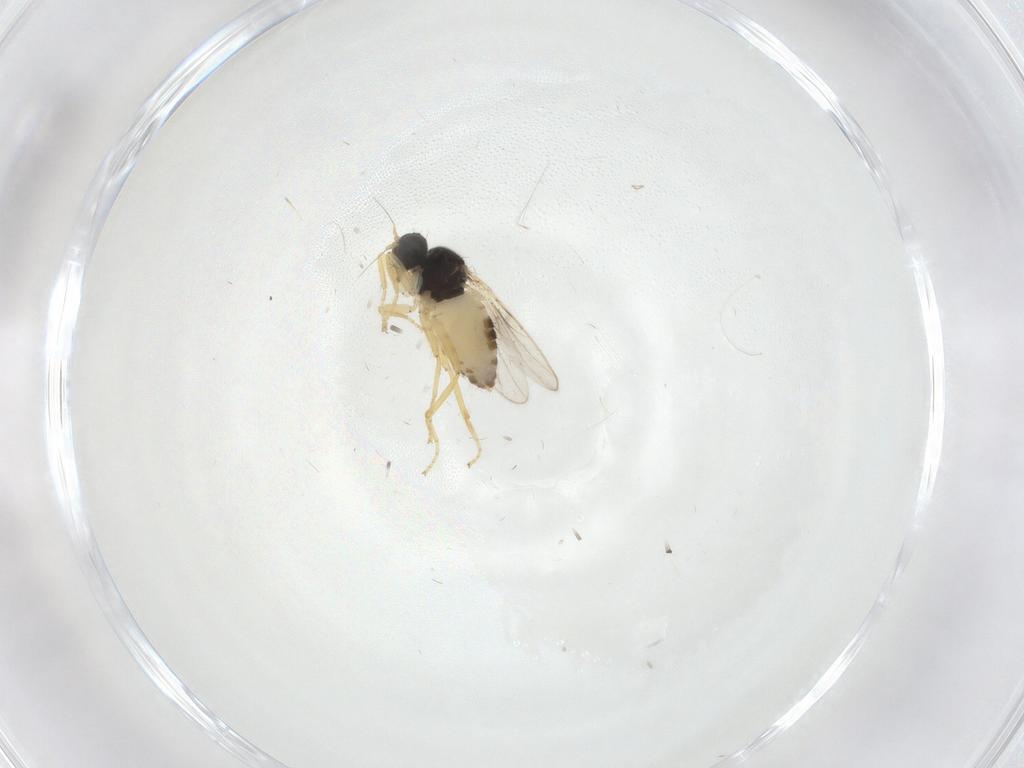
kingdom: Animalia
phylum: Arthropoda
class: Insecta
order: Diptera
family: Hybotidae
